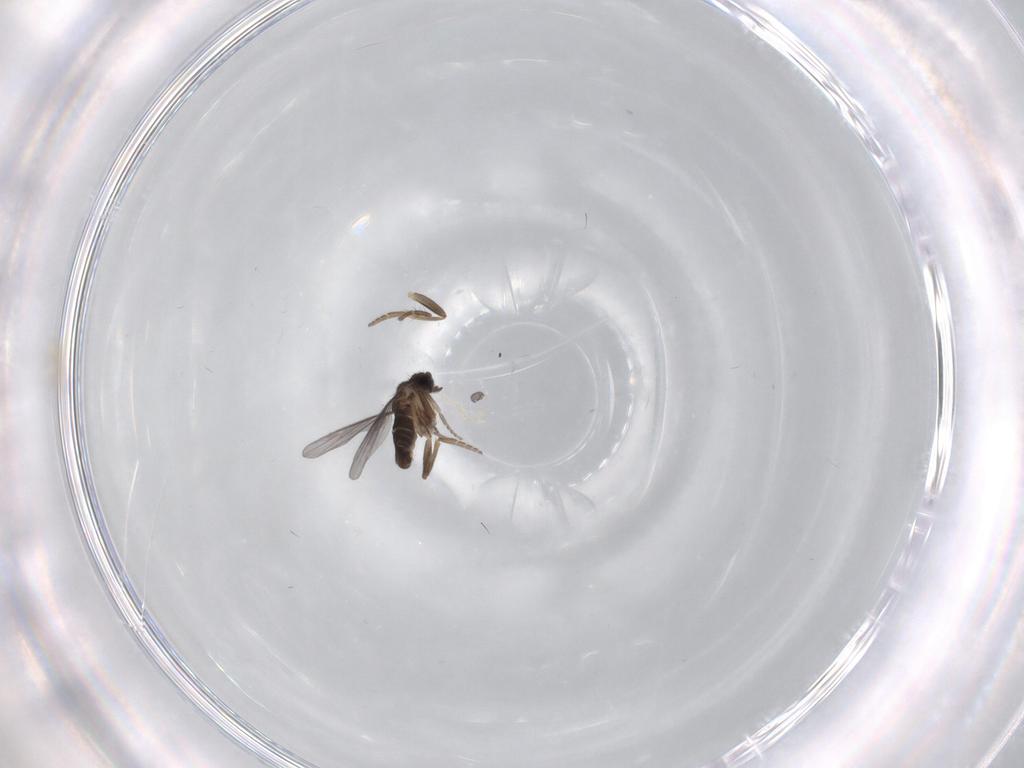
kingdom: Animalia
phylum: Arthropoda
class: Insecta
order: Diptera
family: Chironomidae
